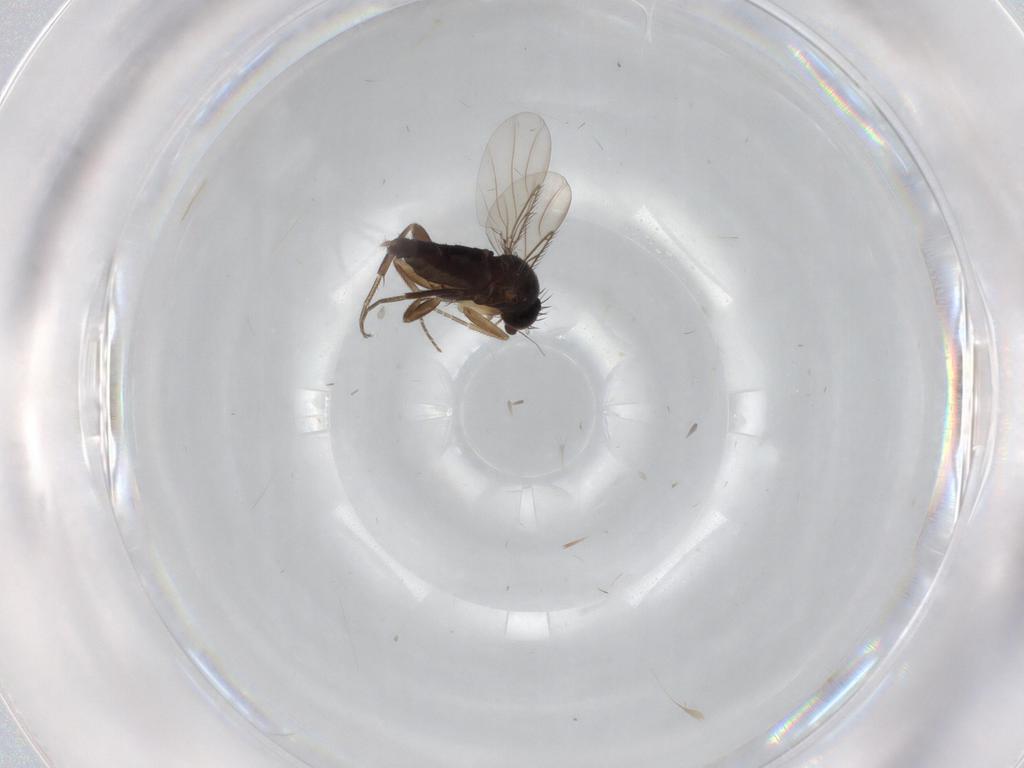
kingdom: Animalia
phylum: Arthropoda
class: Insecta
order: Diptera
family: Phoridae
